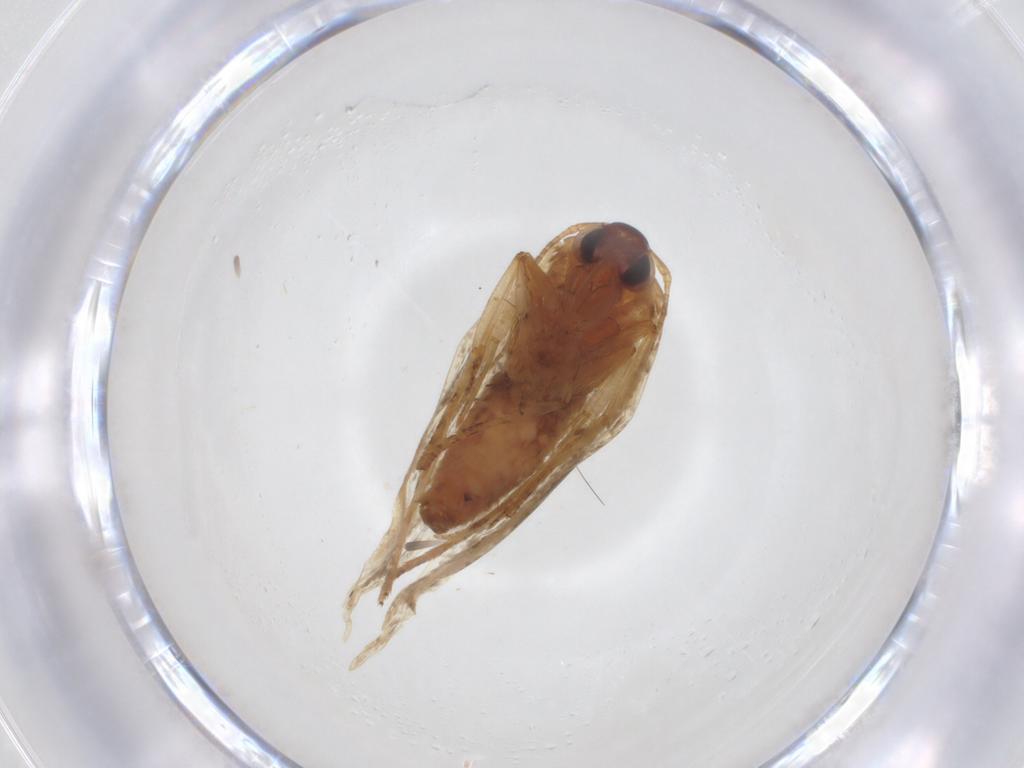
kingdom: Animalia
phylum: Arthropoda
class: Insecta
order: Lepidoptera
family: Blastobasidae
